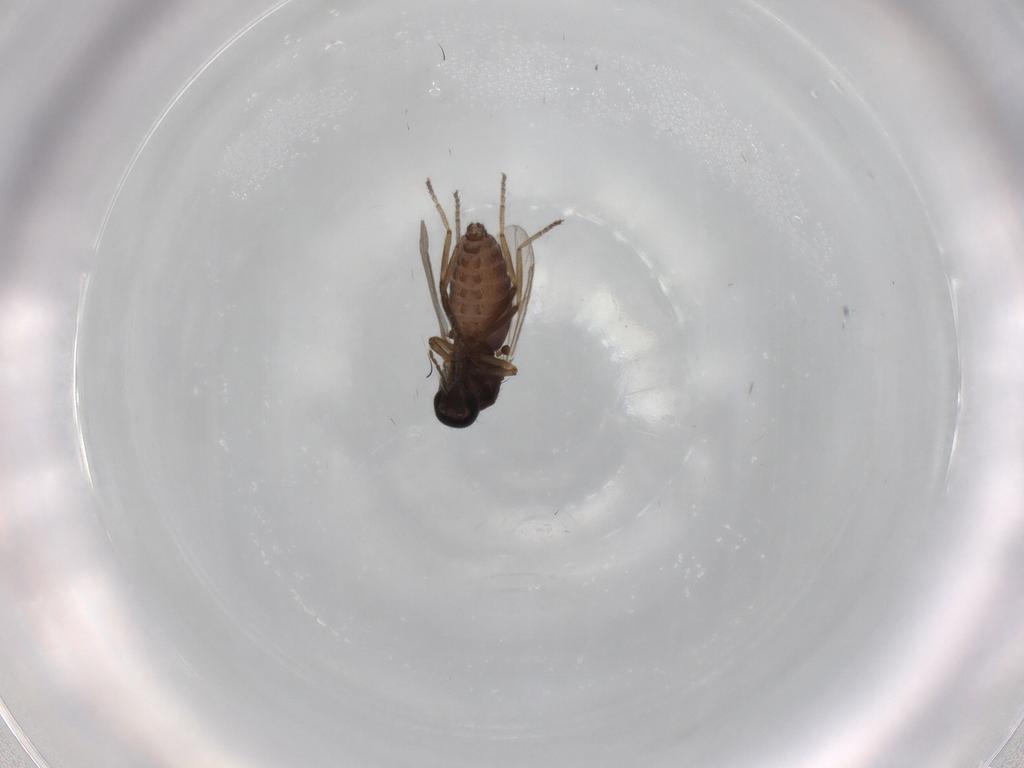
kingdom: Animalia
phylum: Arthropoda
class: Insecta
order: Diptera
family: Ceratopogonidae
